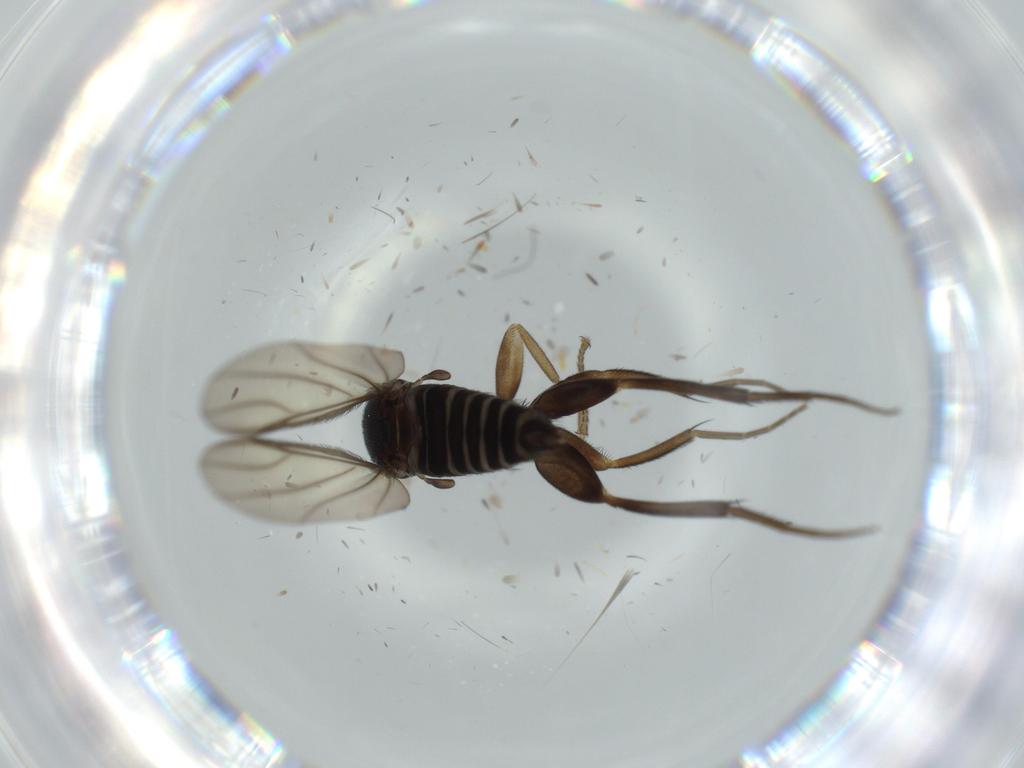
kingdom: Animalia
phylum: Arthropoda
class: Insecta
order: Diptera
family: Phoridae
